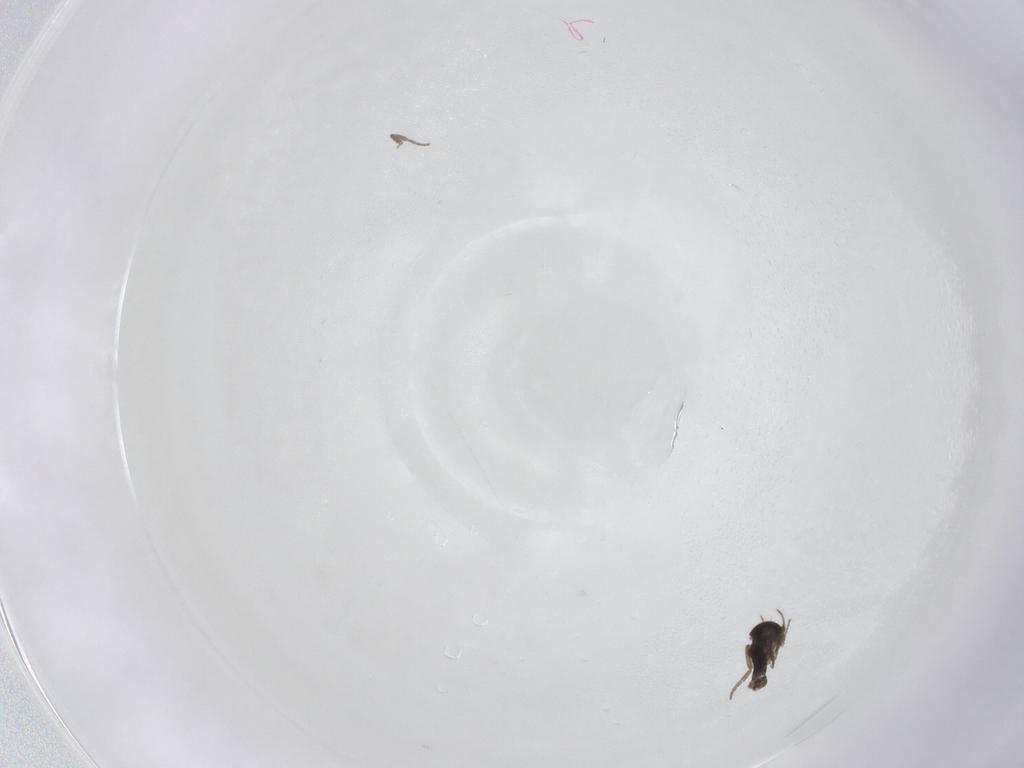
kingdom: Animalia
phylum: Arthropoda
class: Insecta
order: Diptera
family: Phoridae
